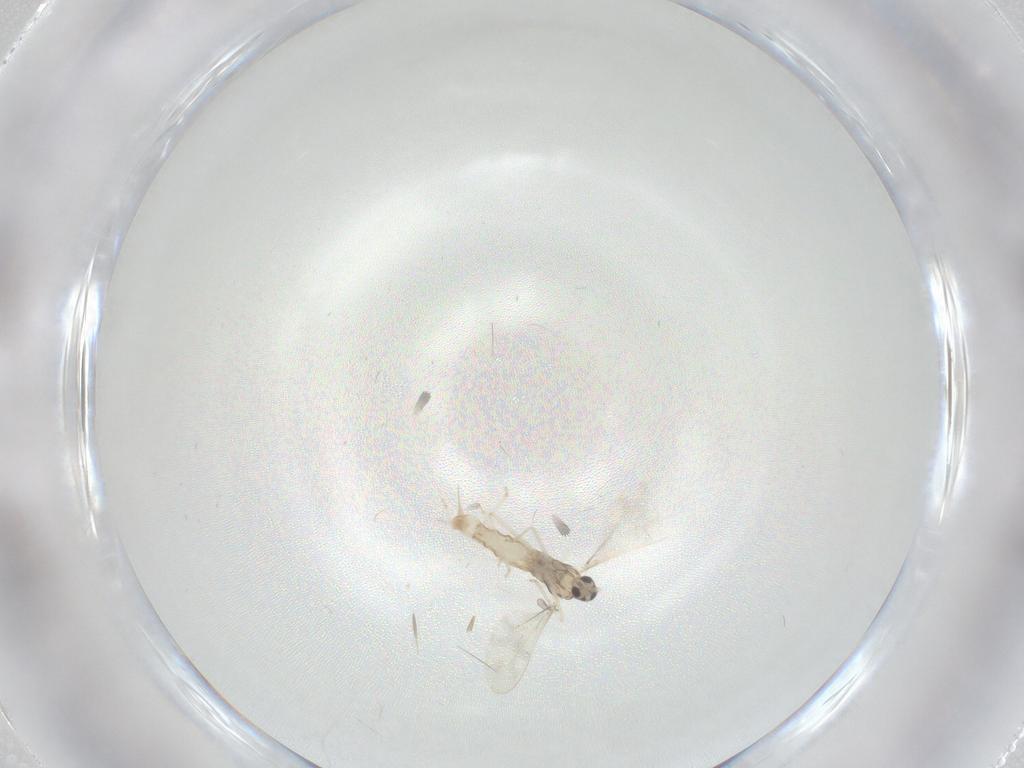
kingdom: Animalia
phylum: Arthropoda
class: Insecta
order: Diptera
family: Cecidomyiidae
